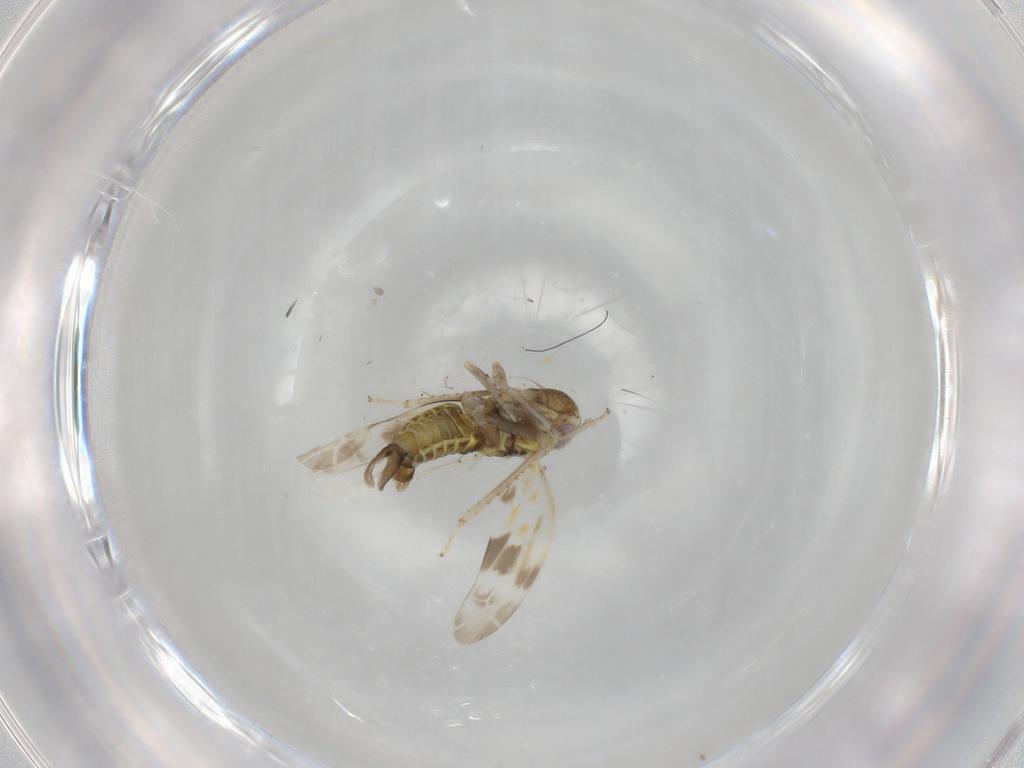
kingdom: Animalia
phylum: Arthropoda
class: Insecta
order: Hemiptera
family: Cicadellidae
